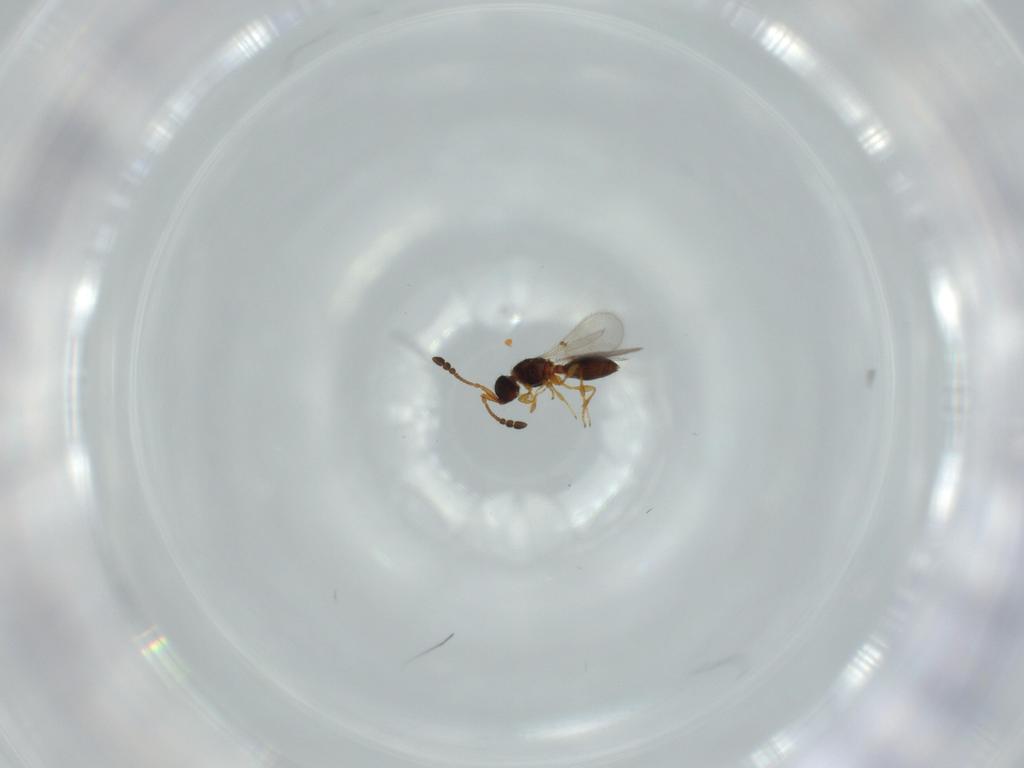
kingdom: Animalia
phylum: Arthropoda
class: Insecta
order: Hymenoptera
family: Diapriidae
